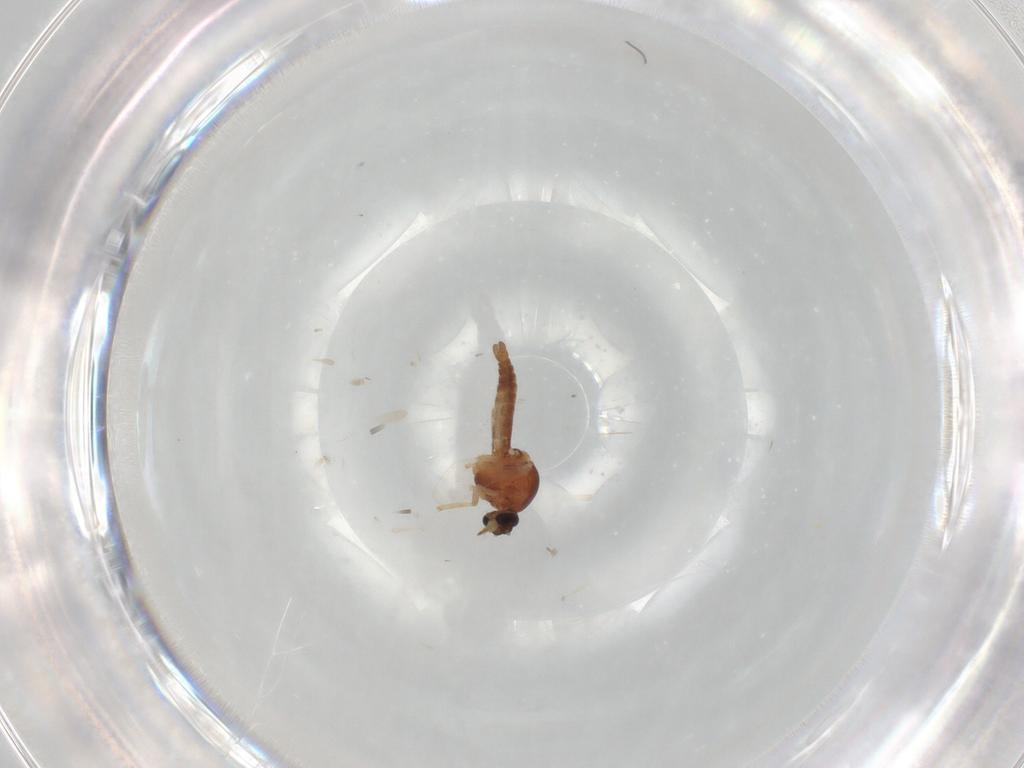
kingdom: Animalia
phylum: Arthropoda
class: Insecta
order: Diptera
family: Ceratopogonidae
